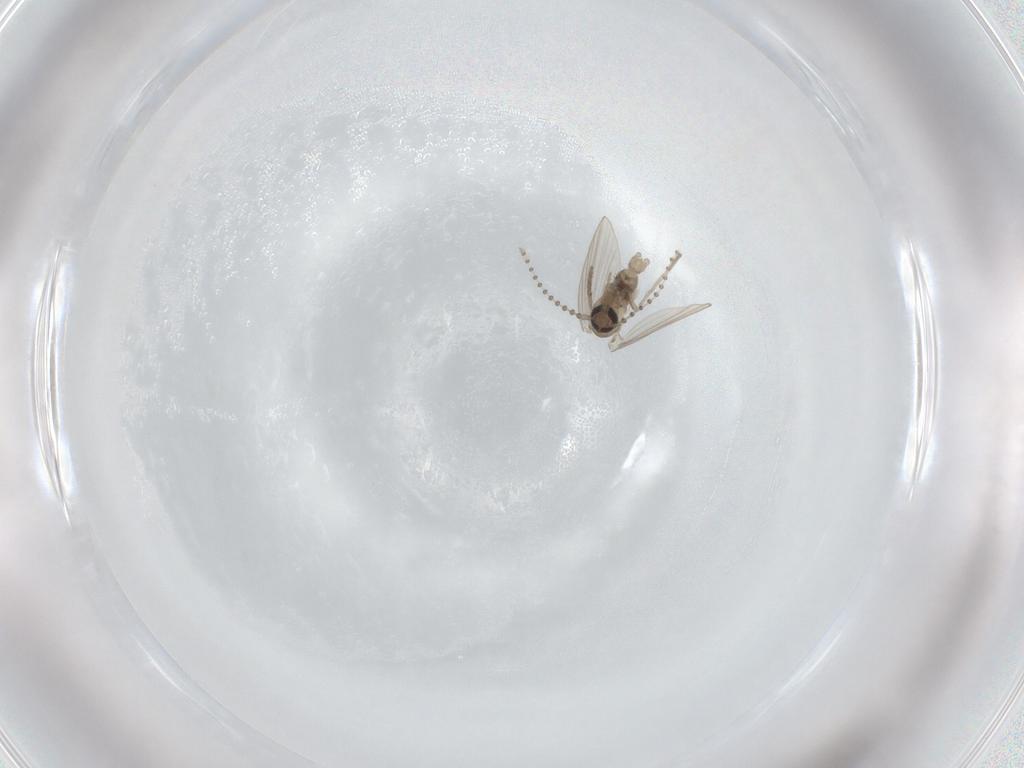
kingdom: Animalia
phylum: Arthropoda
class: Insecta
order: Diptera
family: Psychodidae
